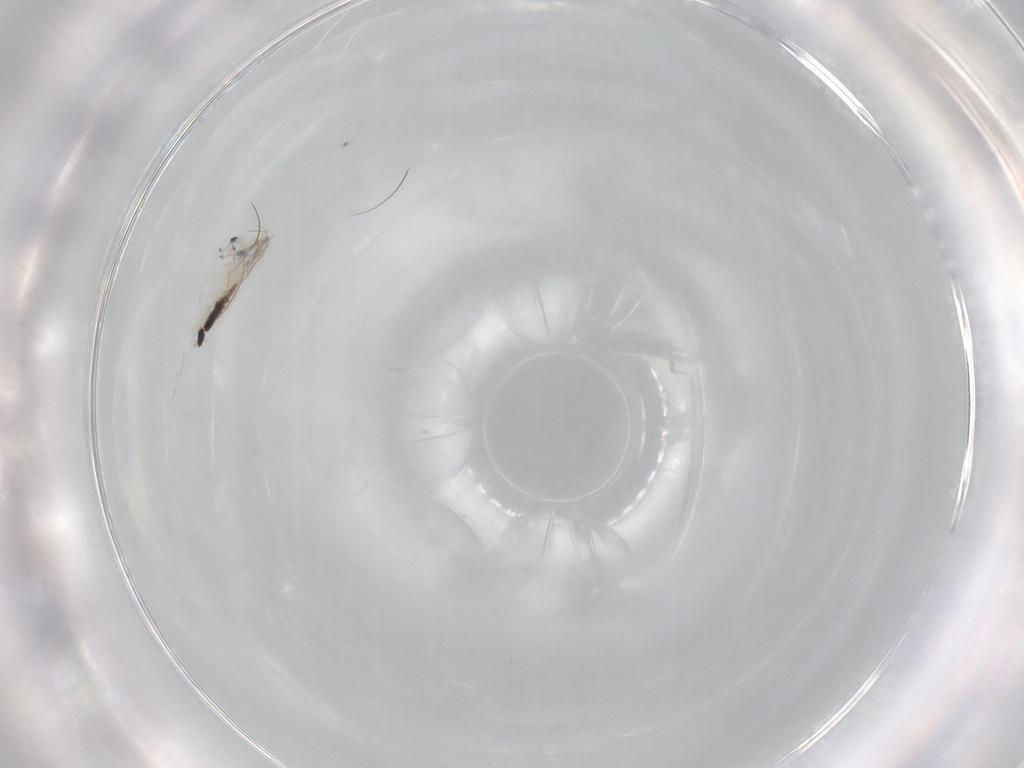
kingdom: Animalia
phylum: Arthropoda
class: Collembola
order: Entomobryomorpha
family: Entomobryidae
